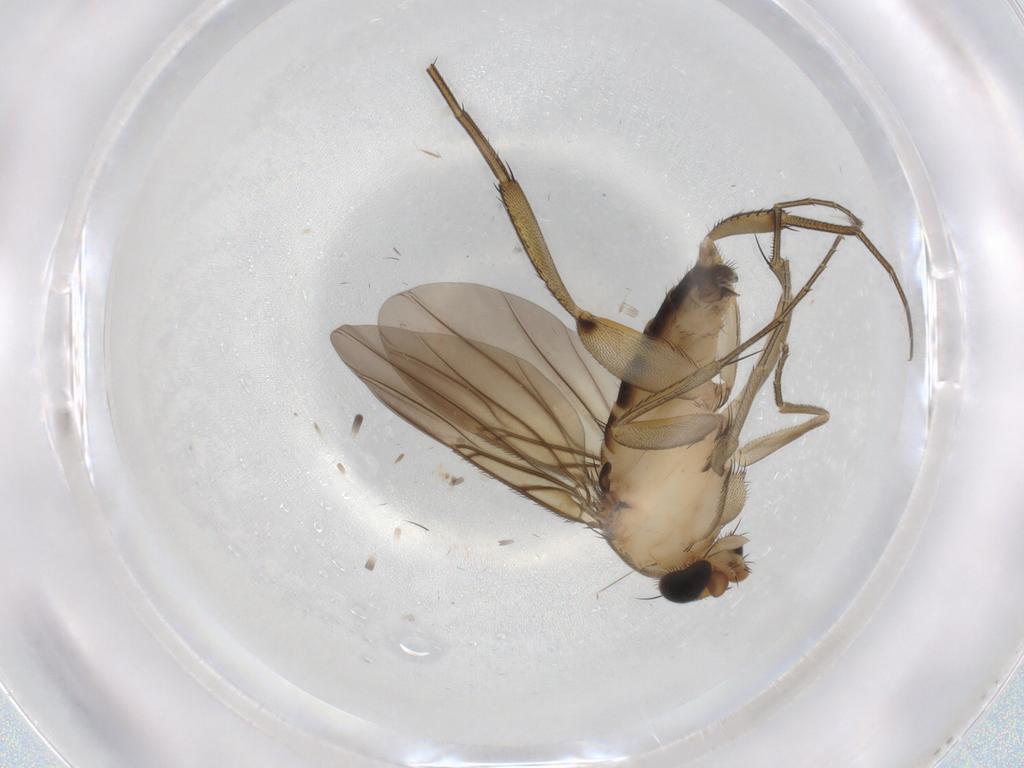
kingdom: Animalia
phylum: Arthropoda
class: Insecta
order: Diptera
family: Phoridae
